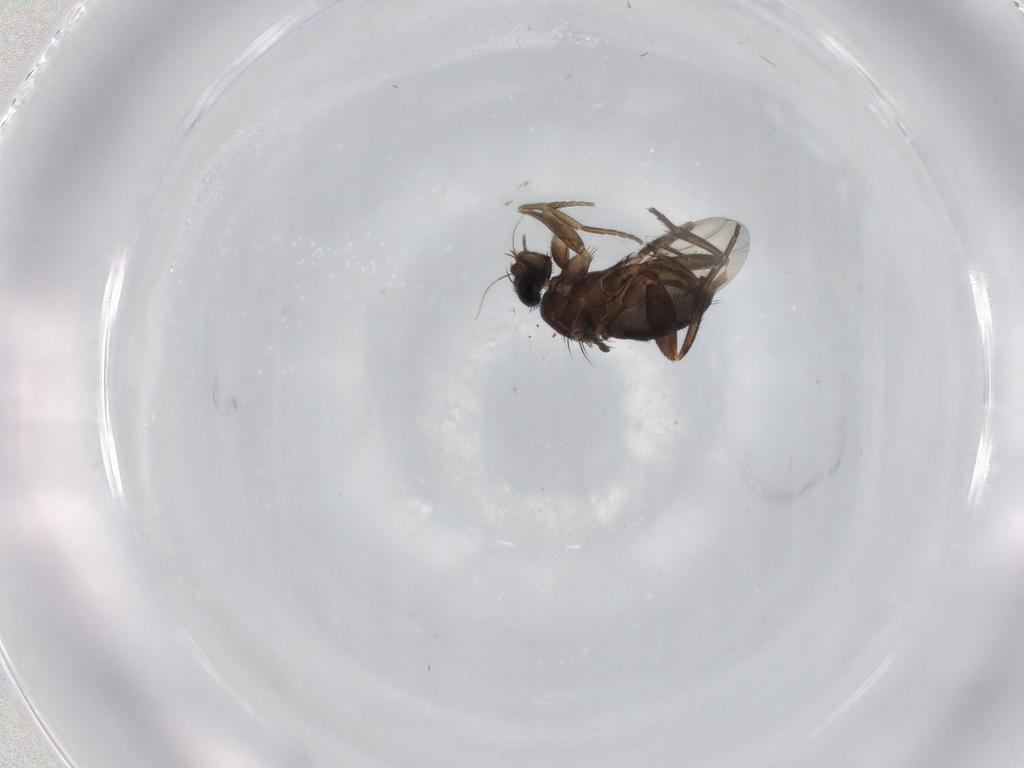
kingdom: Animalia
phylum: Arthropoda
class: Insecta
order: Diptera
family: Phoridae
